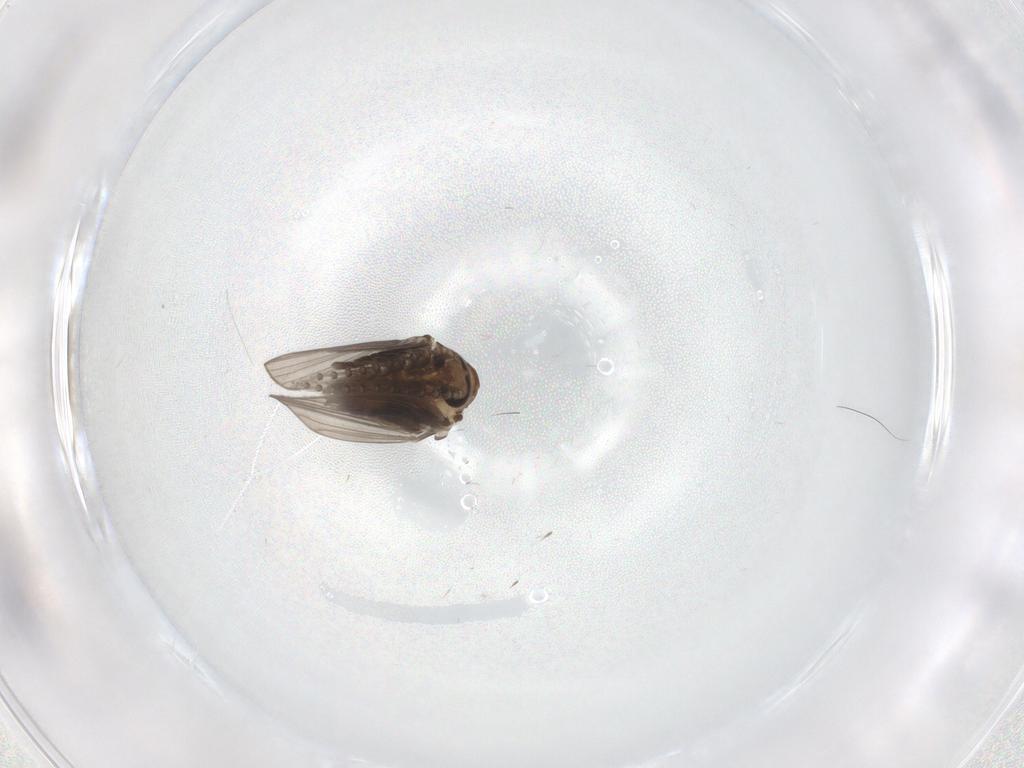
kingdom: Animalia
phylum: Arthropoda
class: Insecta
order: Diptera
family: Psychodidae
